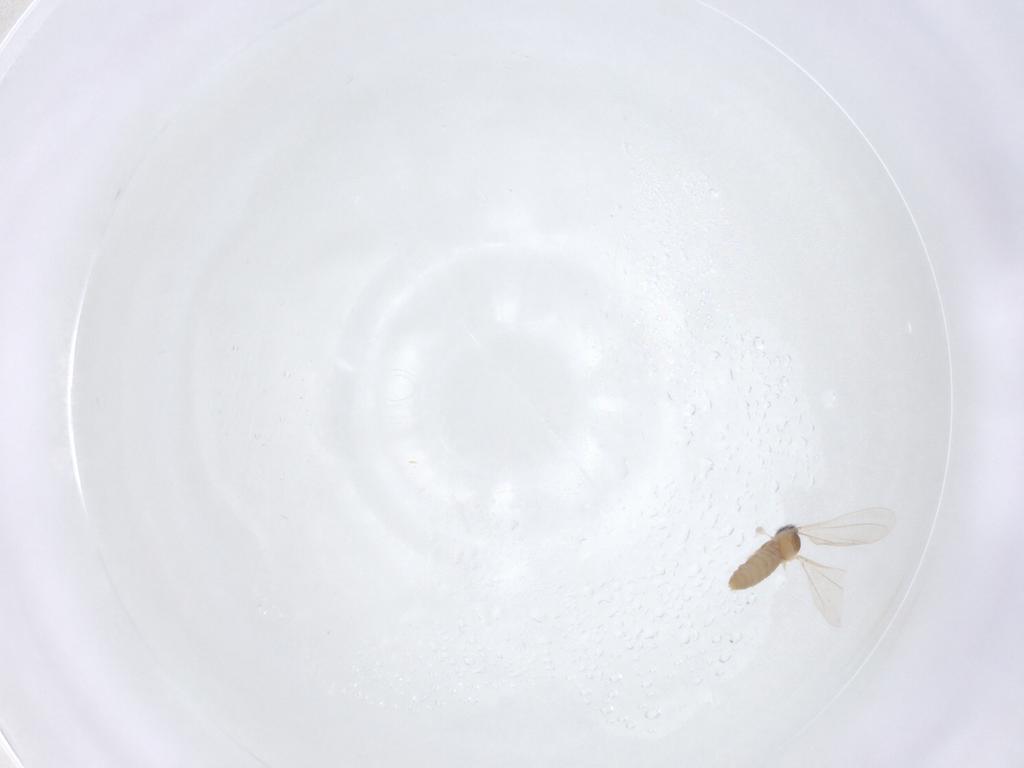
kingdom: Animalia
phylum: Arthropoda
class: Insecta
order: Diptera
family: Phoridae
